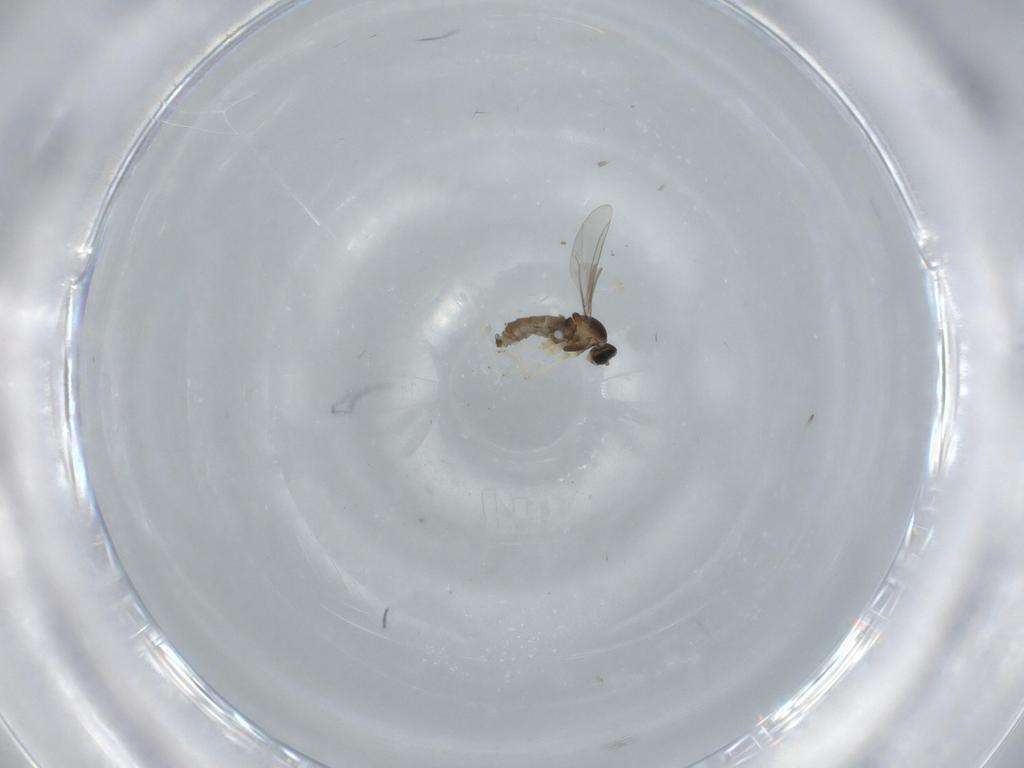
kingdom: Animalia
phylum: Arthropoda
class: Insecta
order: Diptera
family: Cecidomyiidae
